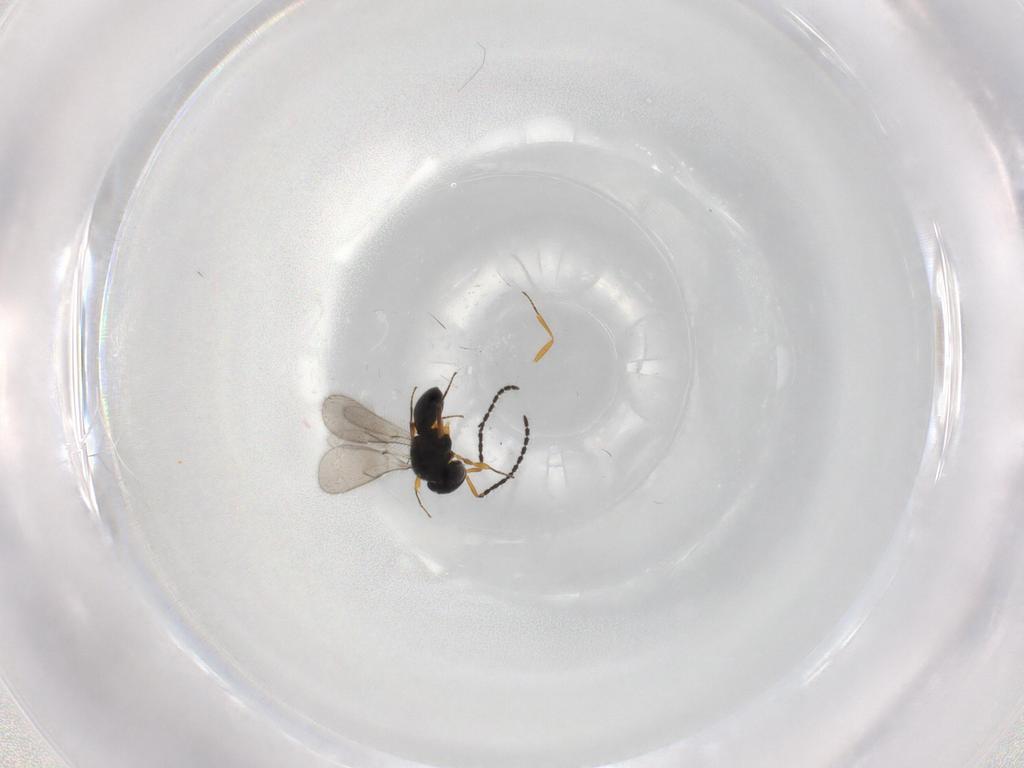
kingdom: Animalia
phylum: Arthropoda
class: Insecta
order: Hymenoptera
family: Scelionidae
